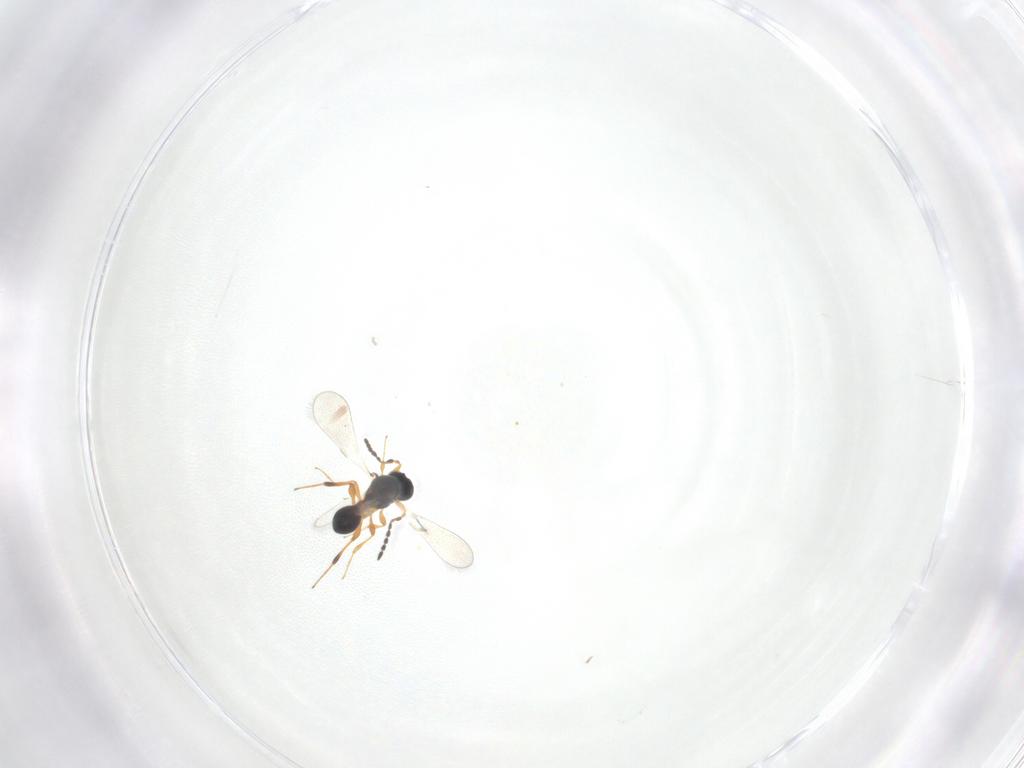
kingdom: Animalia
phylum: Arthropoda
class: Insecta
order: Hymenoptera
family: Platygastridae
